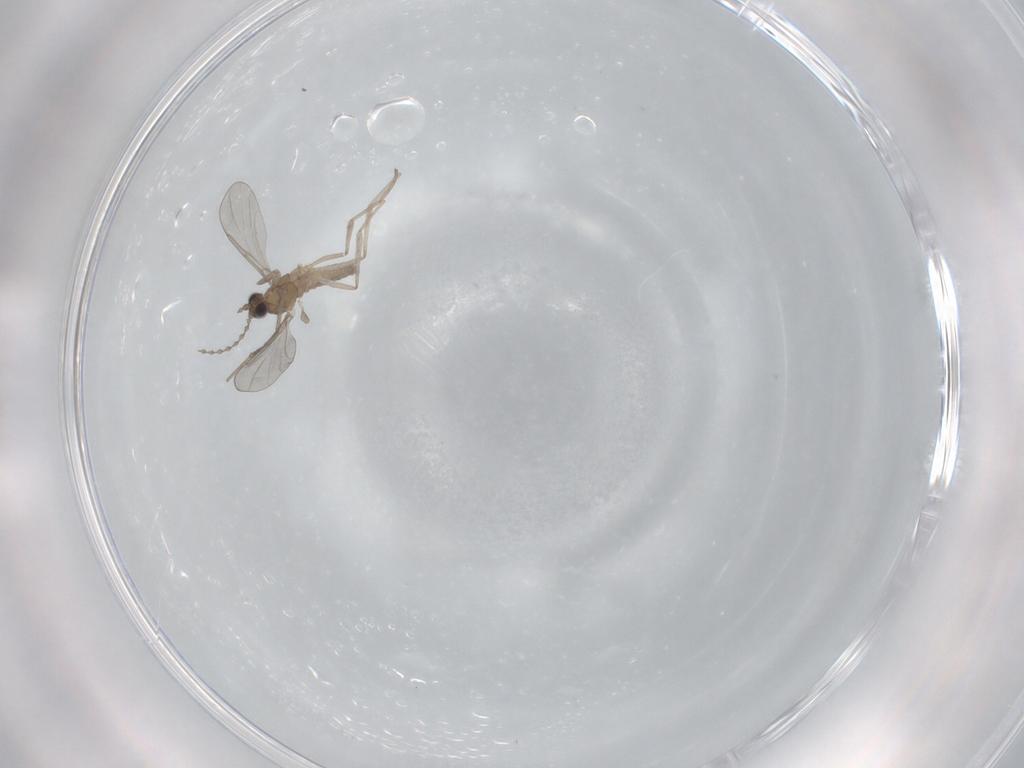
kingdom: Animalia
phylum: Arthropoda
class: Insecta
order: Diptera
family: Cecidomyiidae
